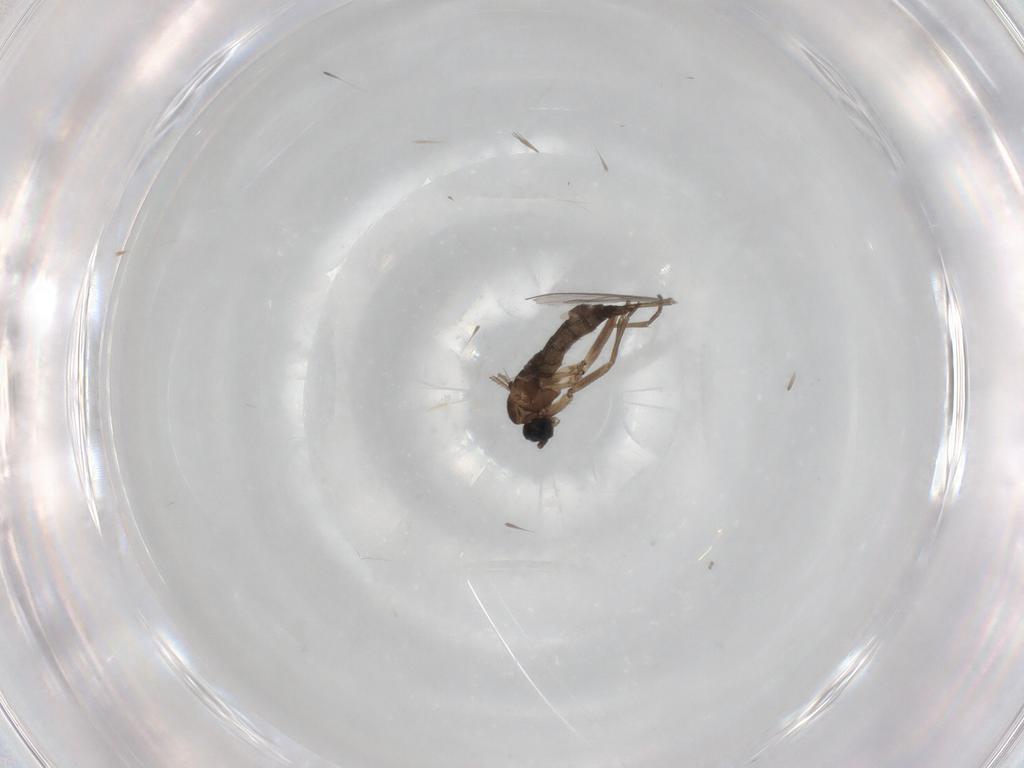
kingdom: Animalia
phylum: Arthropoda
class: Insecta
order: Diptera
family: Sciaridae
